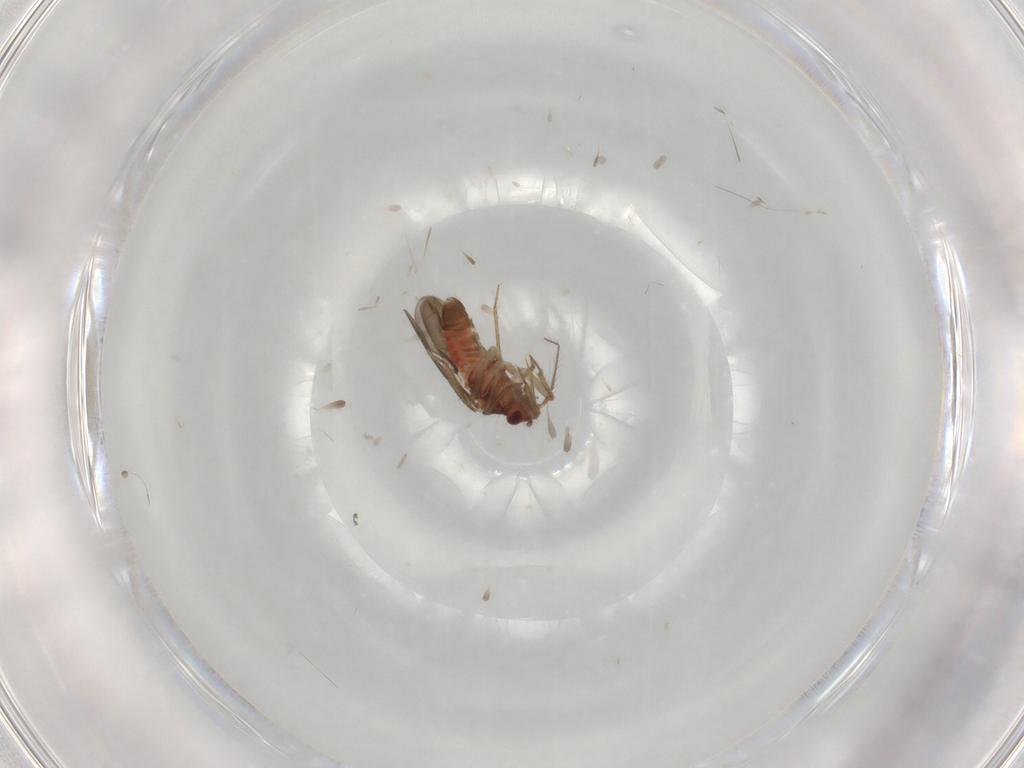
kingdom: Animalia
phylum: Arthropoda
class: Insecta
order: Hemiptera
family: Ceratocombidae
